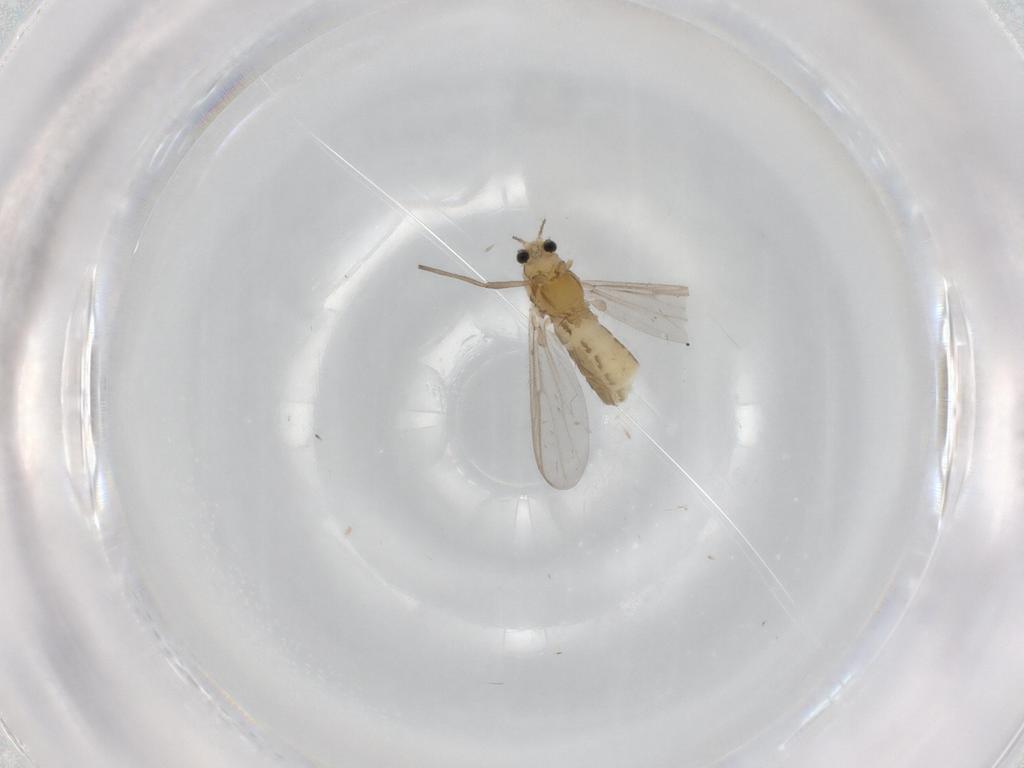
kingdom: Animalia
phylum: Arthropoda
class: Insecta
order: Diptera
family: Chironomidae
